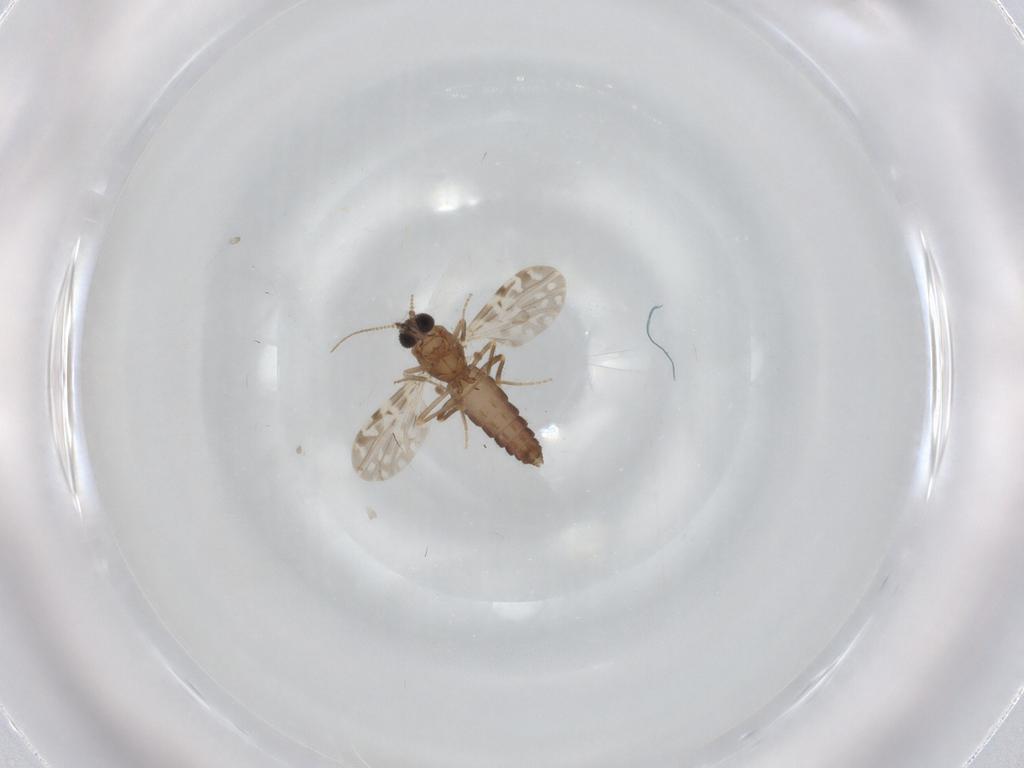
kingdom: Animalia
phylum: Arthropoda
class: Insecta
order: Diptera
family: Ceratopogonidae
